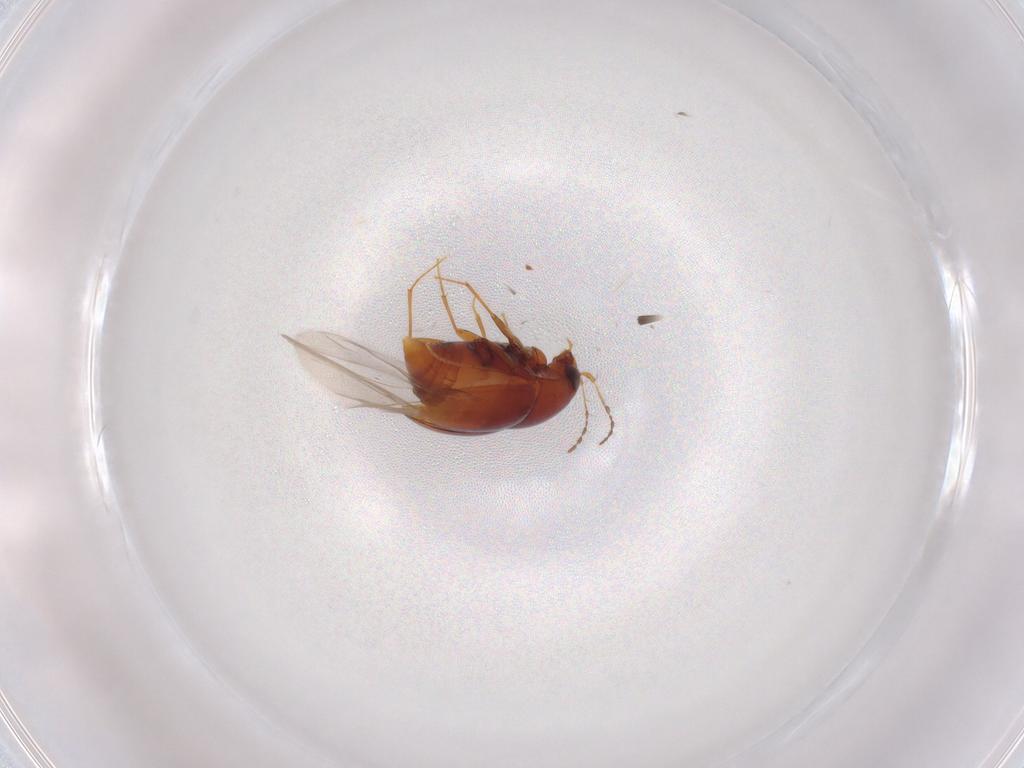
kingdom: Animalia
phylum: Arthropoda
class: Insecta
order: Coleoptera
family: Staphylinidae
